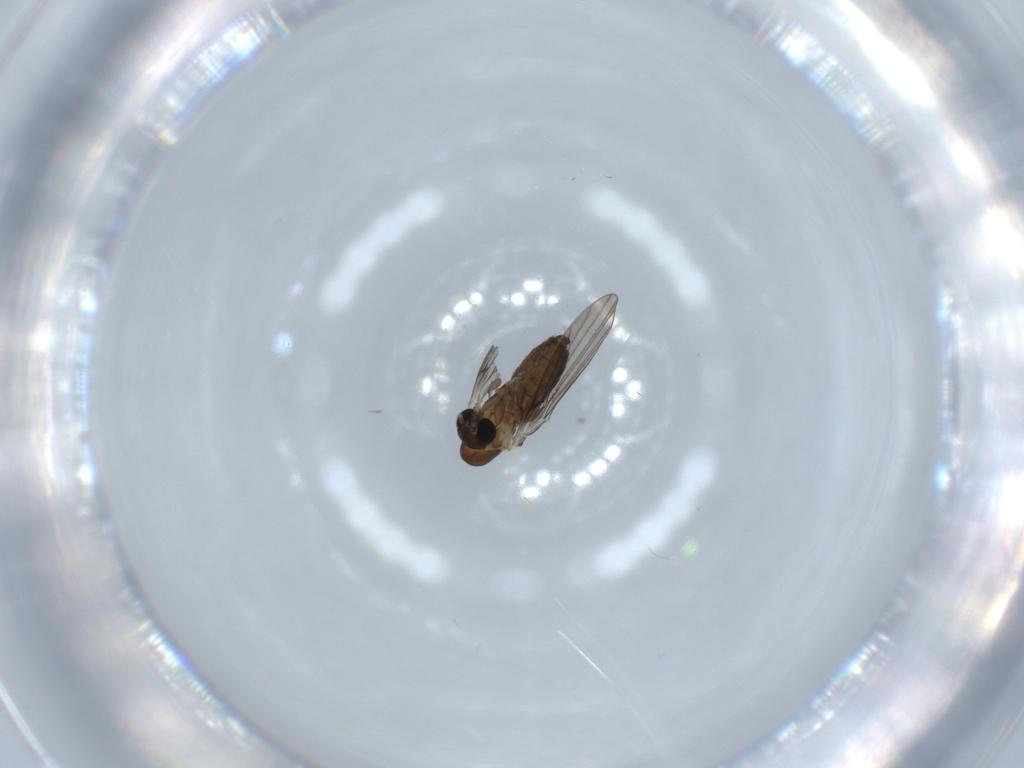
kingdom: Animalia
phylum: Arthropoda
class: Insecta
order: Diptera
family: Psychodidae
